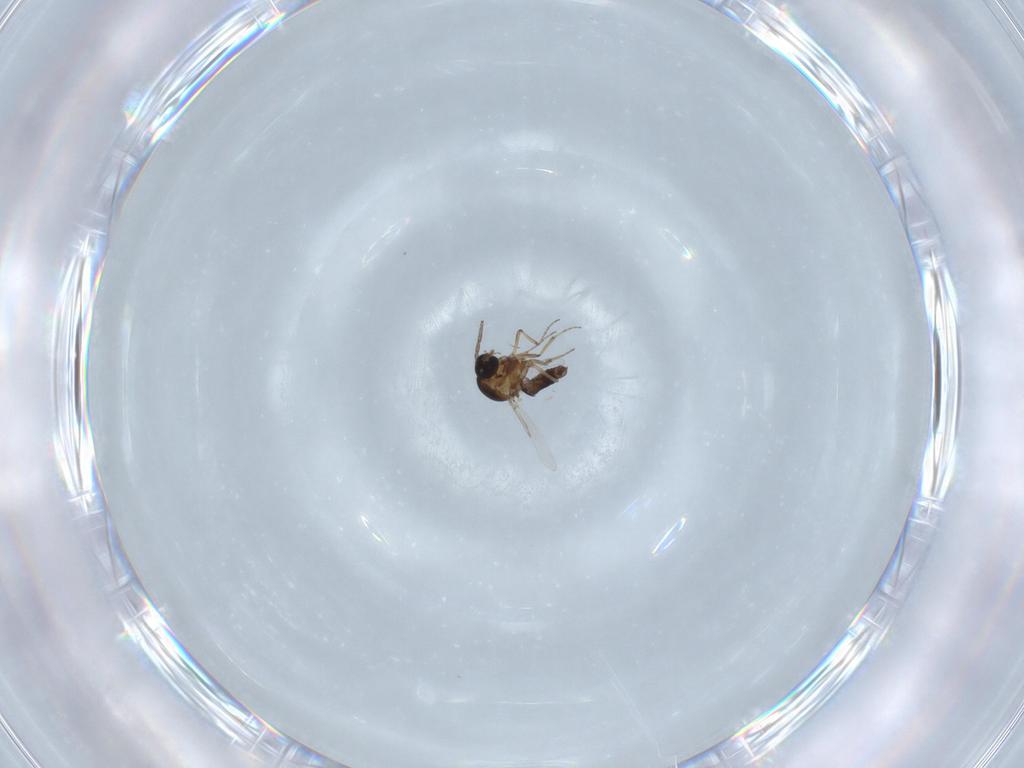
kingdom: Animalia
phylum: Arthropoda
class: Insecta
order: Diptera
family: Ceratopogonidae
